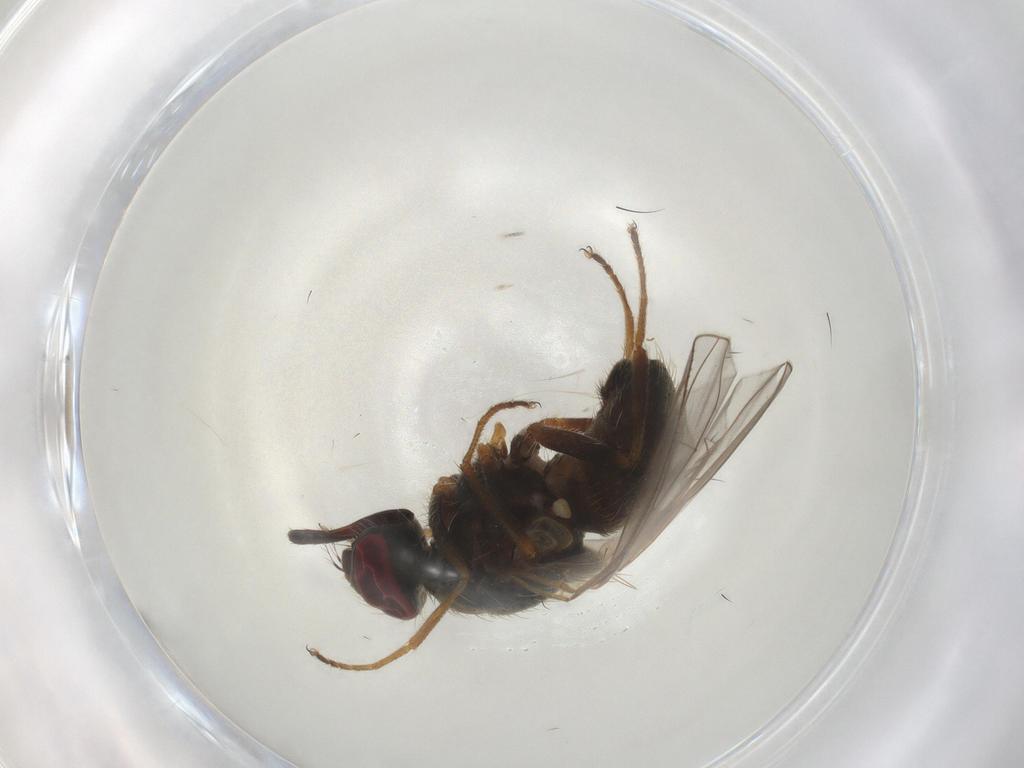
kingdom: Animalia
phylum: Arthropoda
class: Insecta
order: Diptera
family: Muscidae
